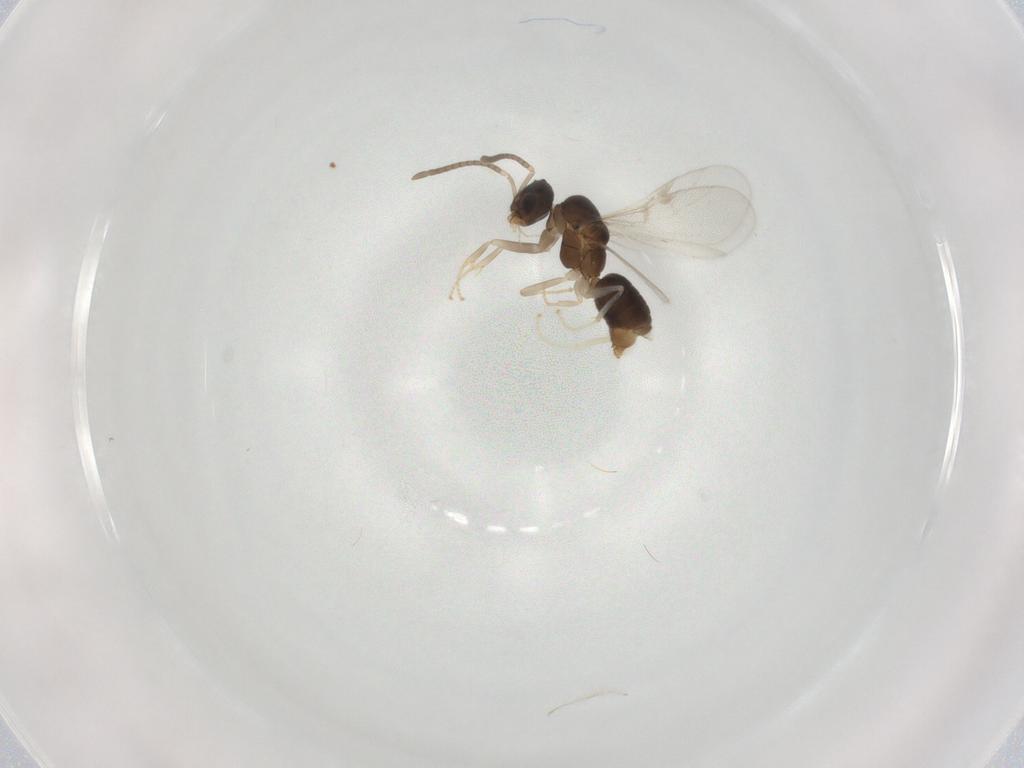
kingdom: Animalia
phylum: Arthropoda
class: Insecta
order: Hymenoptera
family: Formicidae
